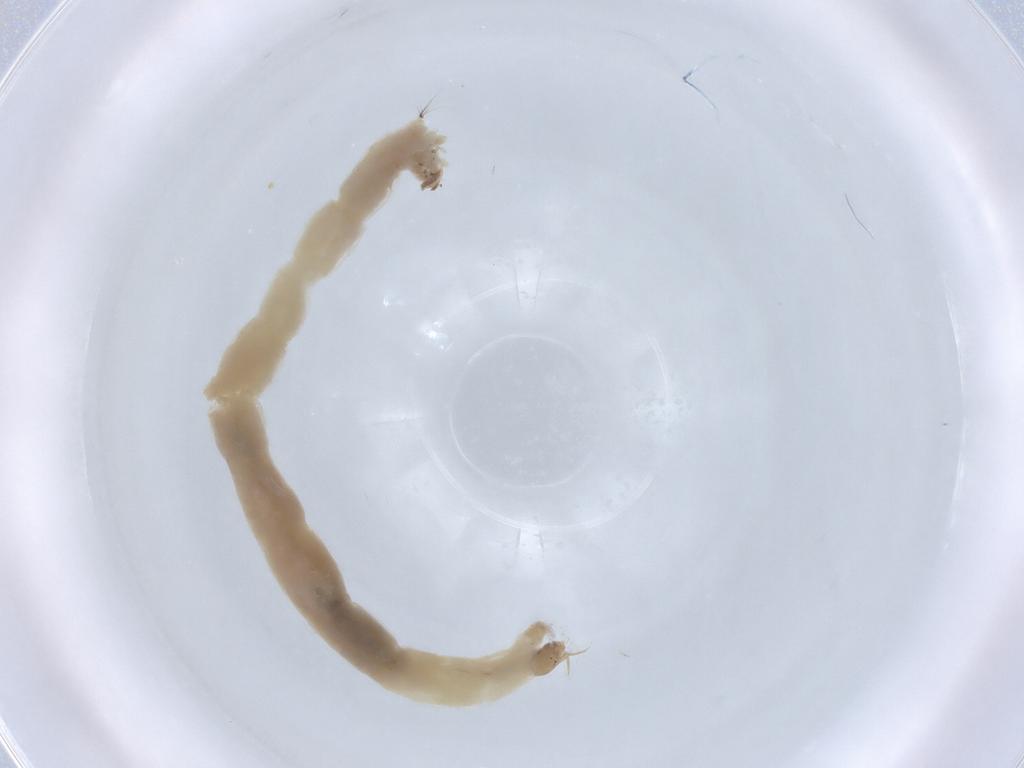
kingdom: Animalia
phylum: Arthropoda
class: Insecta
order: Diptera
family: Chironomidae
